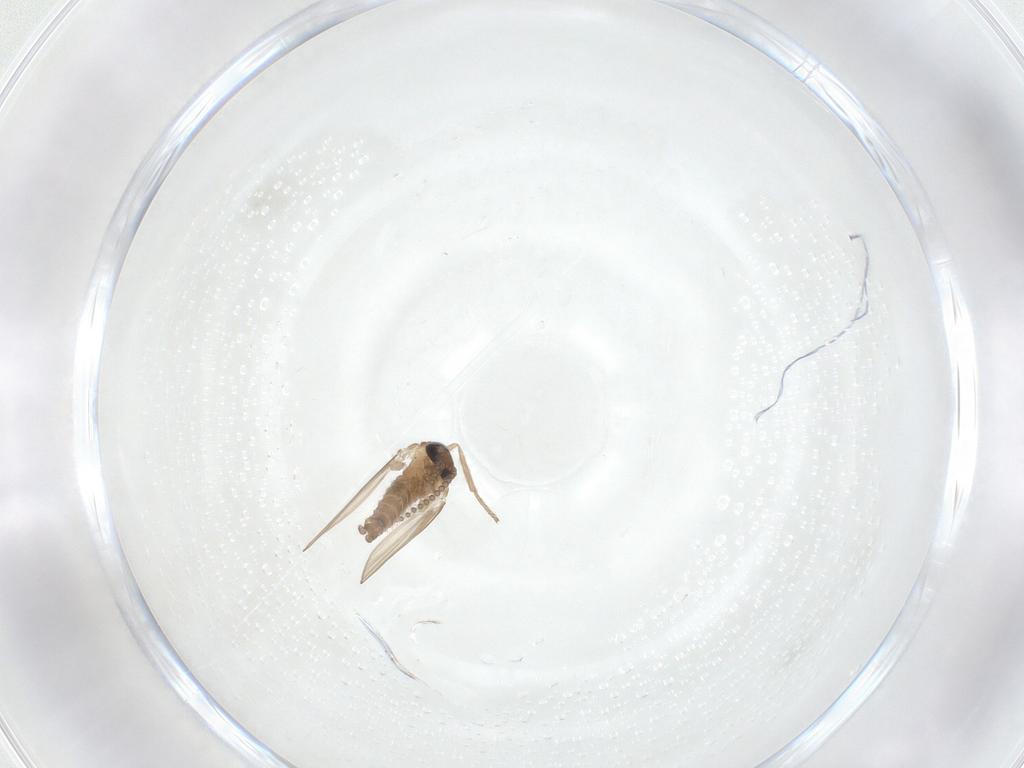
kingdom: Animalia
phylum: Arthropoda
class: Insecta
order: Diptera
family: Psychodidae
